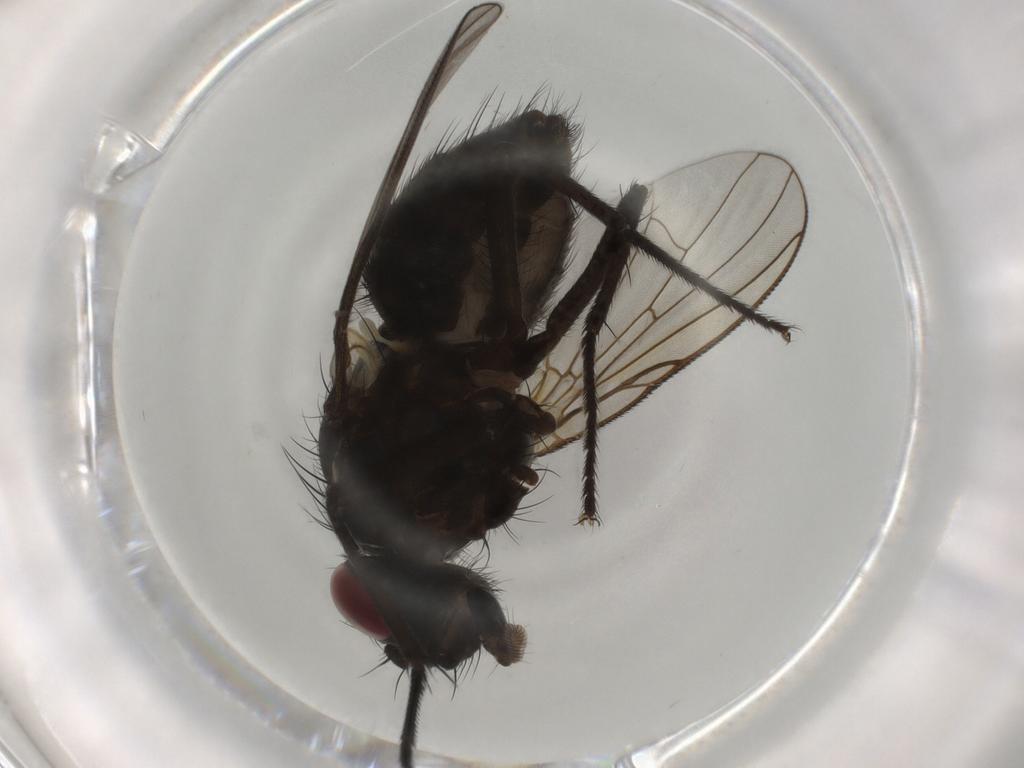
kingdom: Animalia
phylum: Arthropoda
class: Insecta
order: Diptera
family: Muscidae
